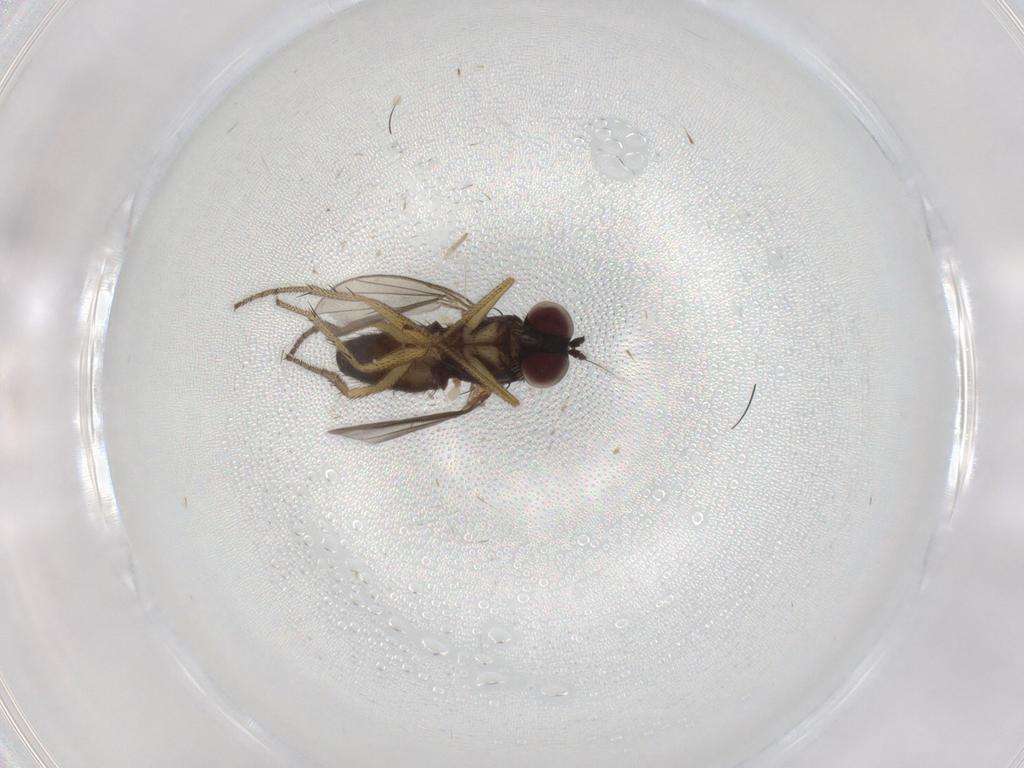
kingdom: Animalia
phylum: Arthropoda
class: Insecta
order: Diptera
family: Dolichopodidae
